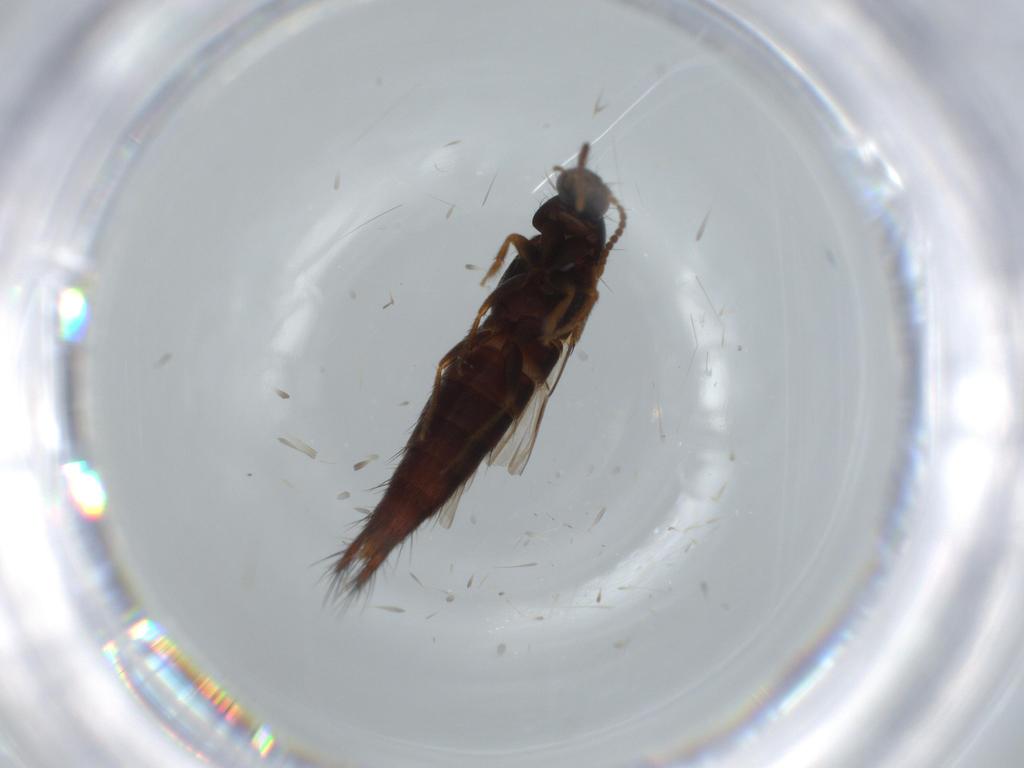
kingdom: Animalia
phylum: Arthropoda
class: Insecta
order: Coleoptera
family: Staphylinidae
